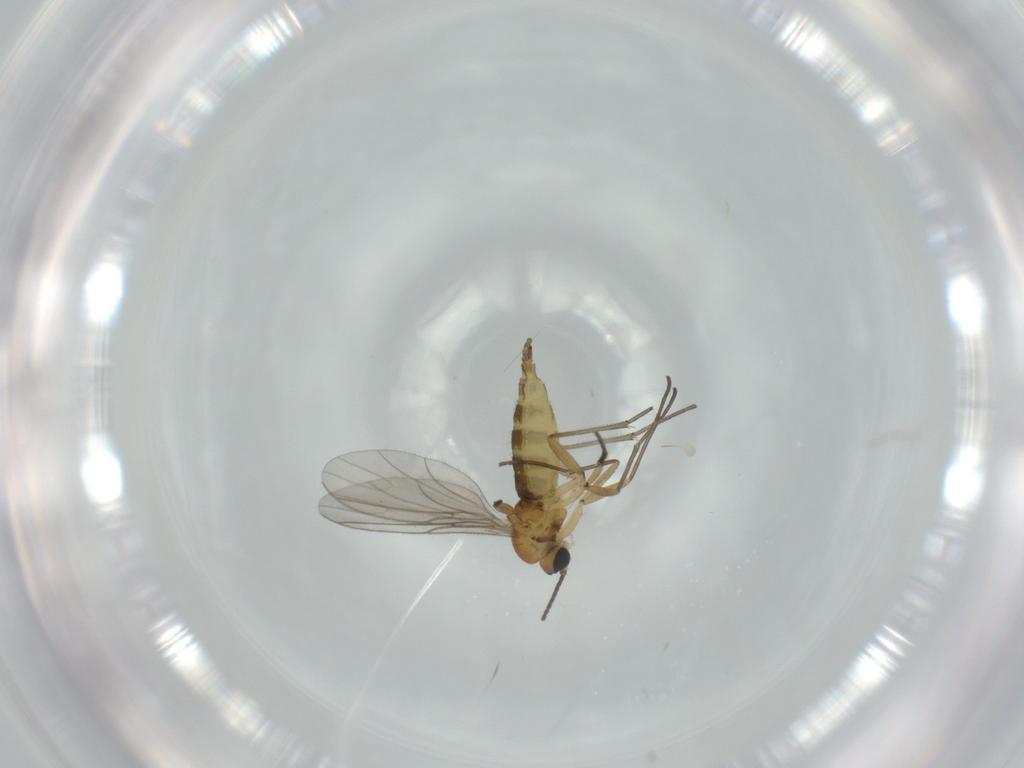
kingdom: Animalia
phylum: Arthropoda
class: Insecta
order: Diptera
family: Sciaridae
